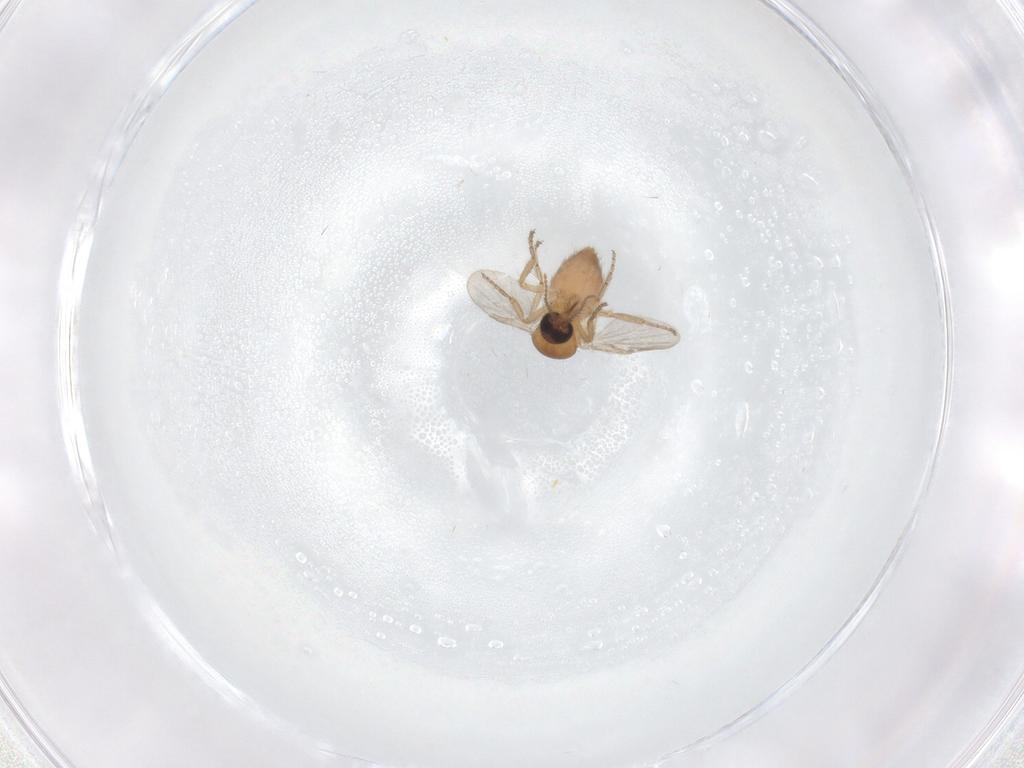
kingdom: Animalia
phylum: Arthropoda
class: Insecta
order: Diptera
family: Ceratopogonidae
